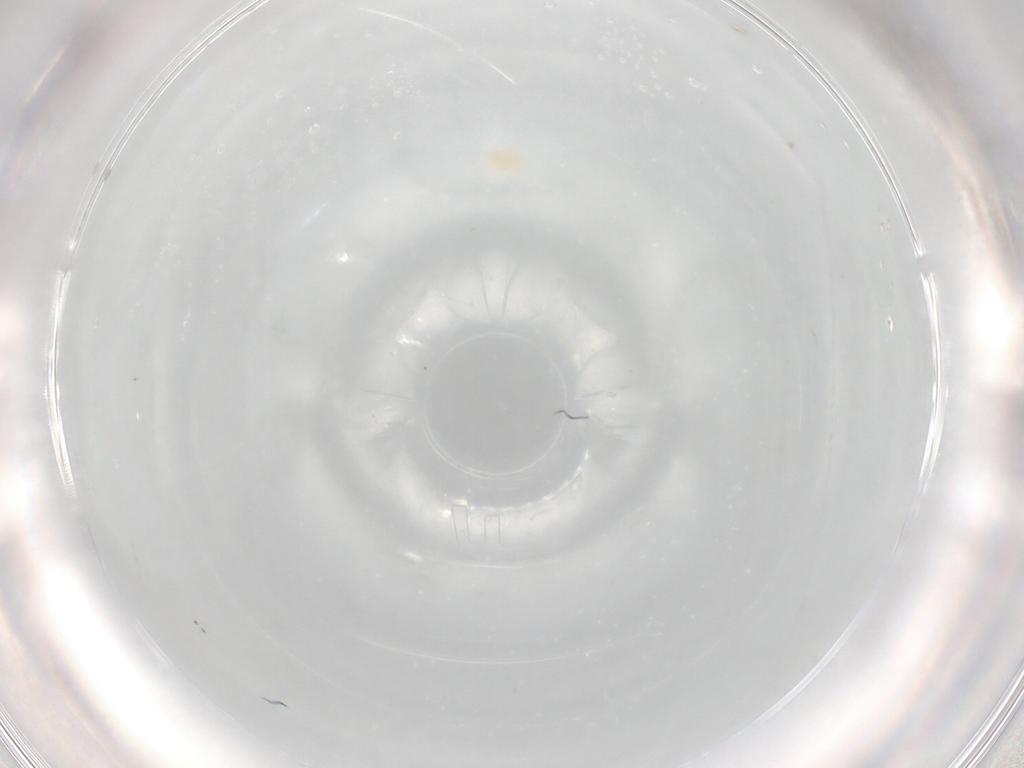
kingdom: Animalia
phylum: Arthropoda
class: Arachnida
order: Trombidiformes
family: Eupodidae
